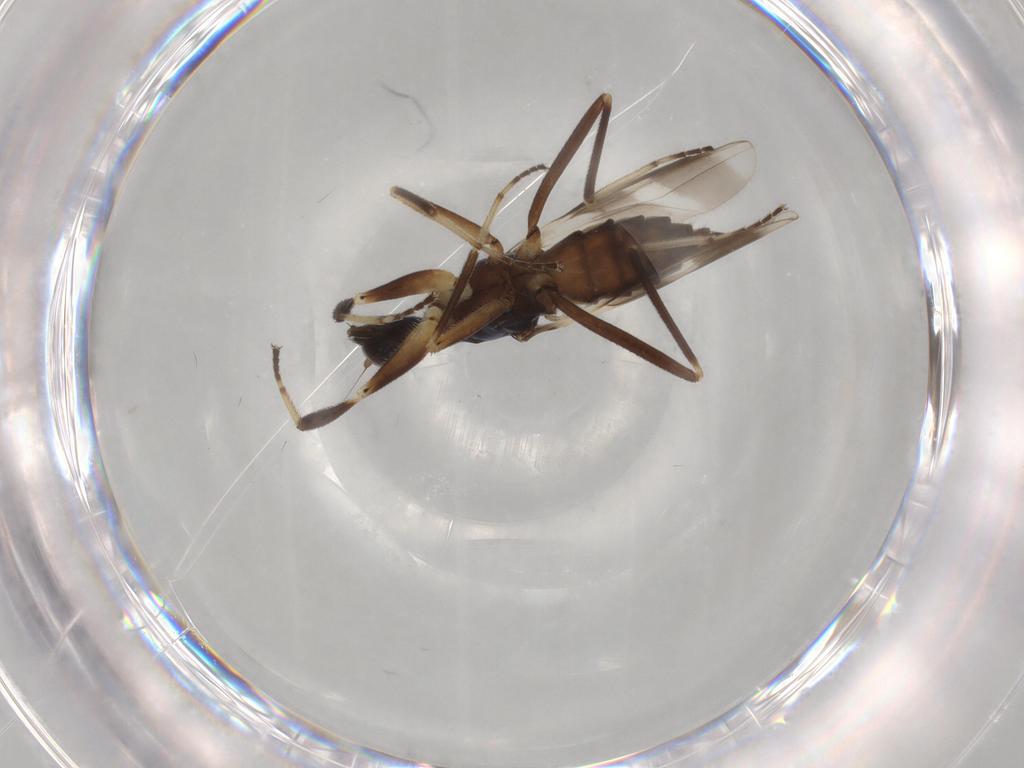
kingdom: Animalia
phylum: Arthropoda
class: Insecta
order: Diptera
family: Hybotidae
